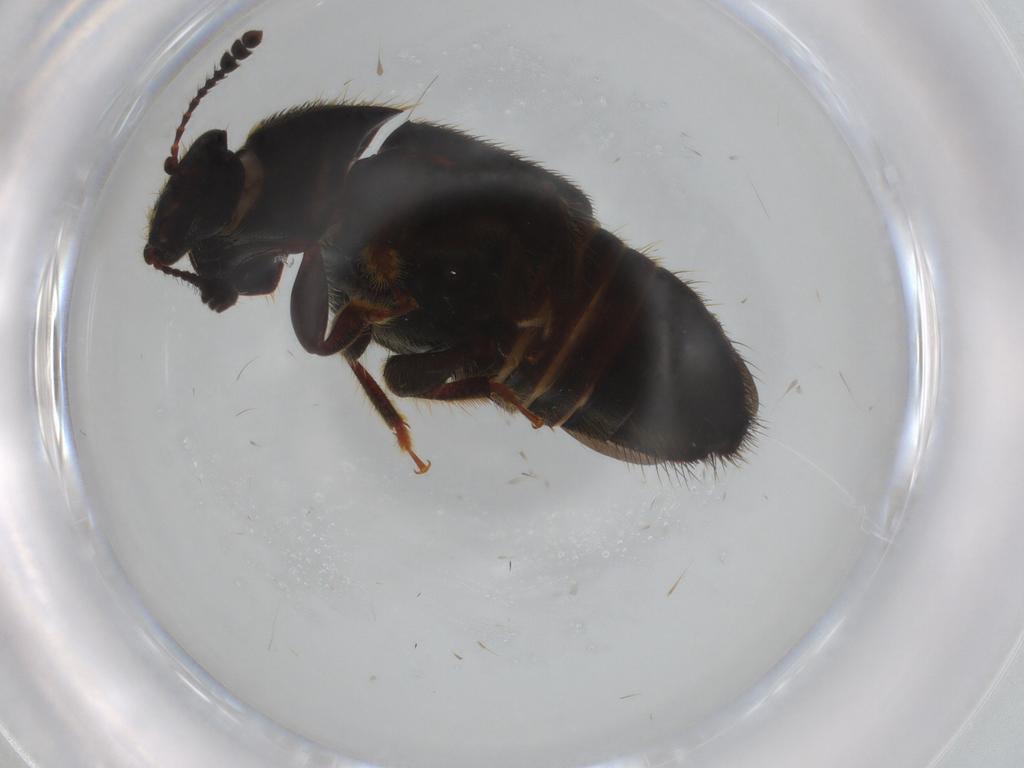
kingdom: Animalia
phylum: Arthropoda
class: Insecta
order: Coleoptera
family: Nitidulidae
